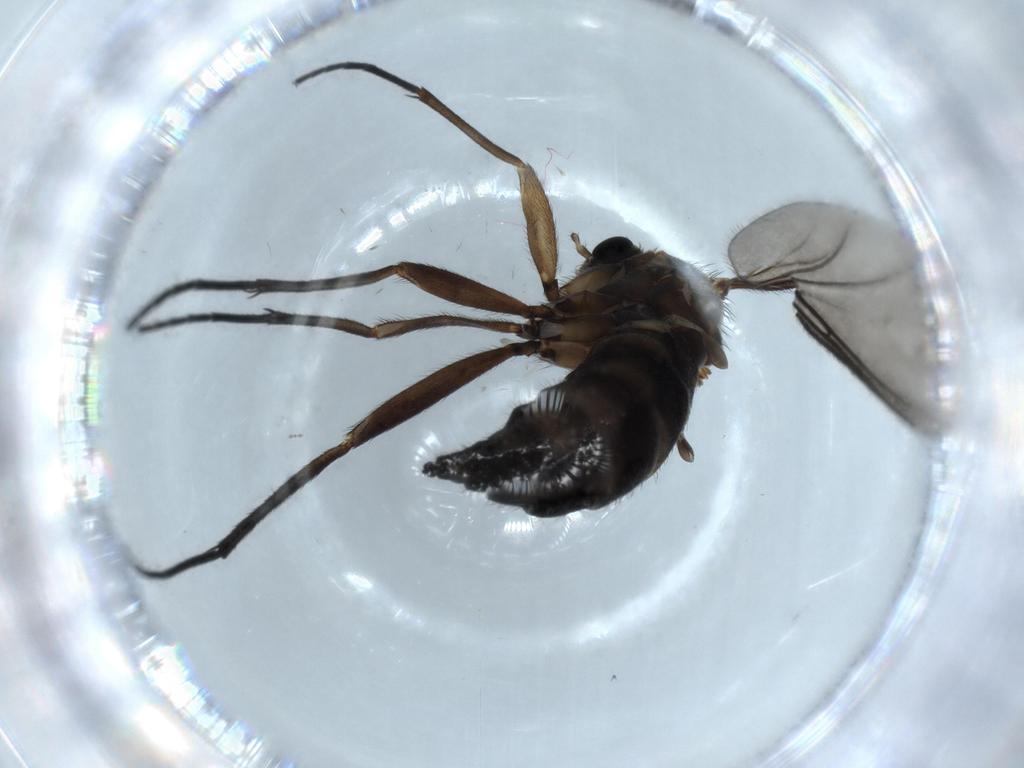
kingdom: Animalia
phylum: Arthropoda
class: Insecta
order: Diptera
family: Sciaridae
